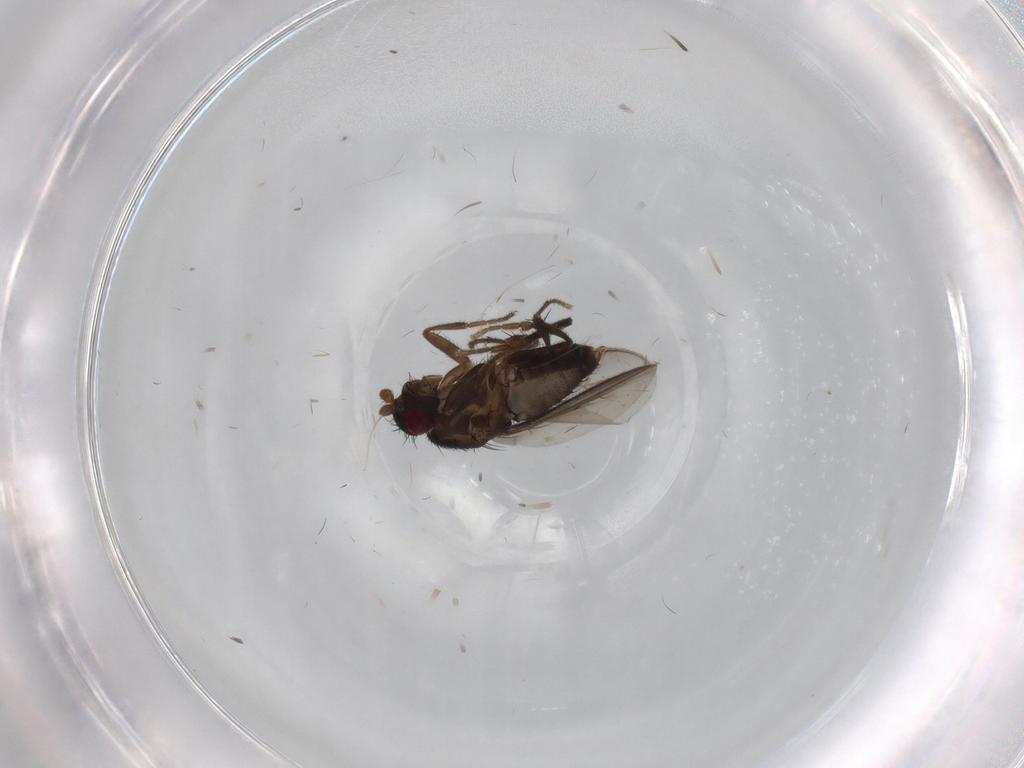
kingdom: Animalia
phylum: Arthropoda
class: Insecta
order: Diptera
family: Sphaeroceridae
